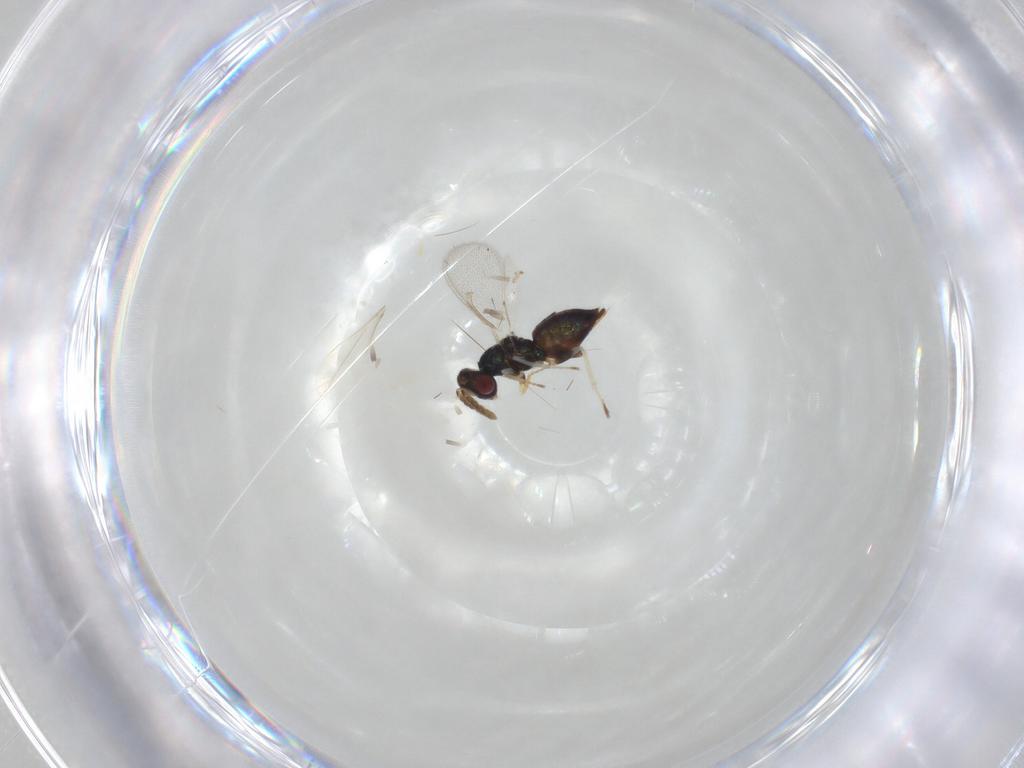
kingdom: Animalia
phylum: Arthropoda
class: Insecta
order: Hymenoptera
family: Eulophidae
